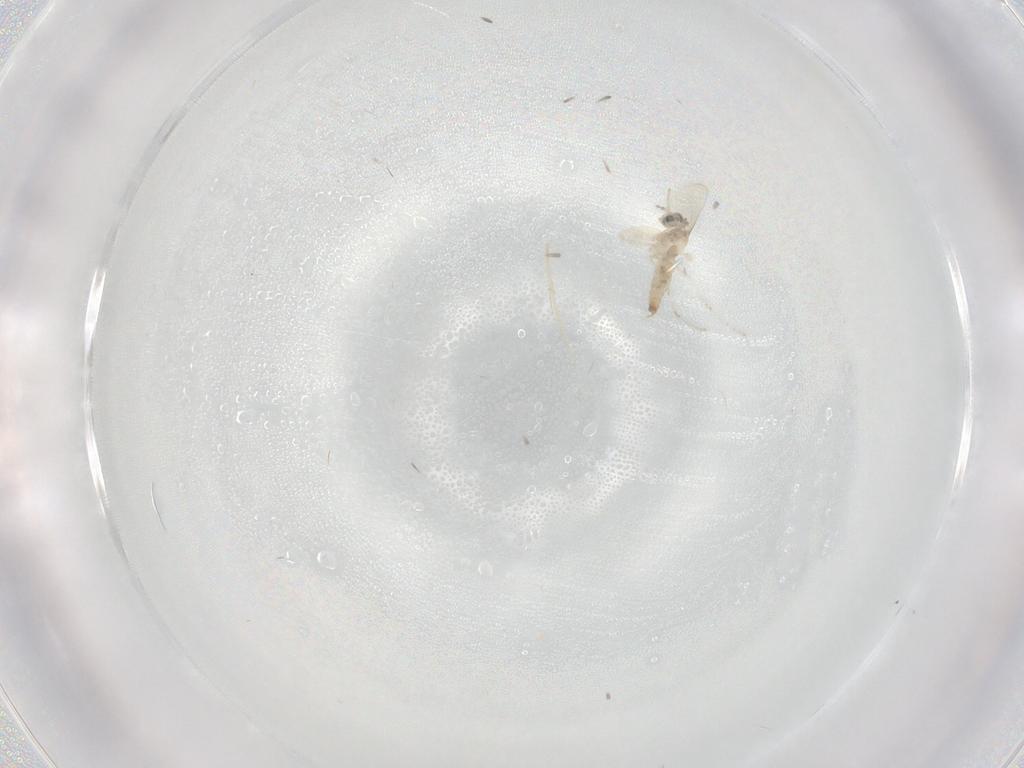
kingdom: Animalia
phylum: Arthropoda
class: Insecta
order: Diptera
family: Cecidomyiidae
